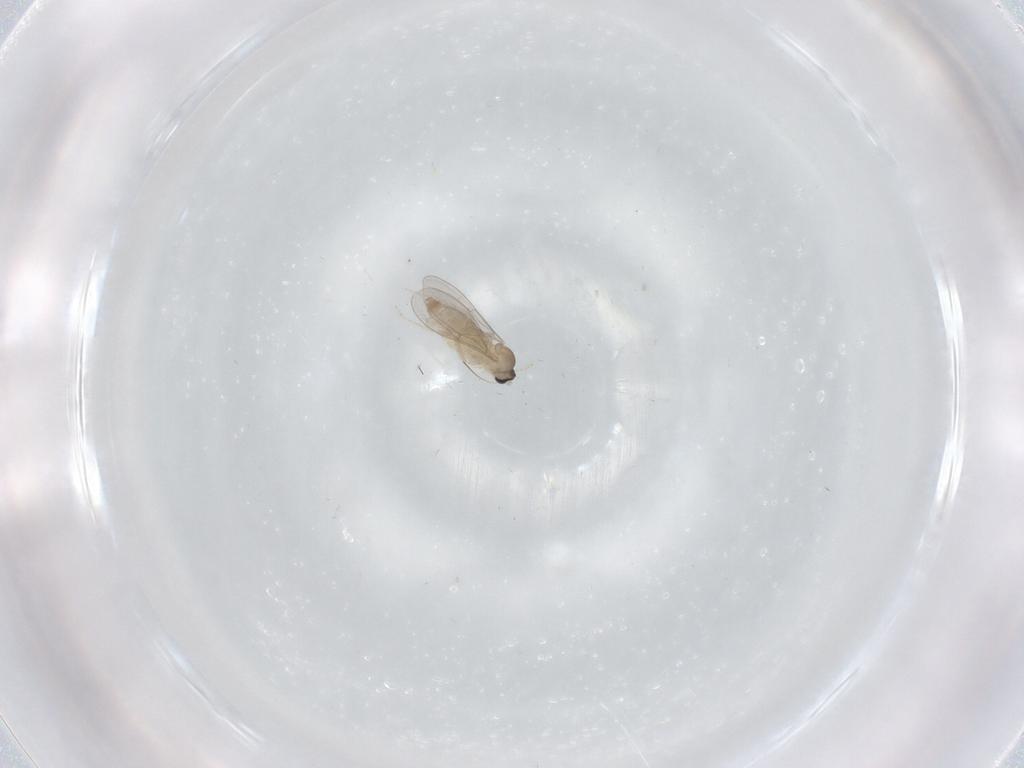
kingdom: Animalia
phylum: Arthropoda
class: Insecta
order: Diptera
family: Cecidomyiidae
